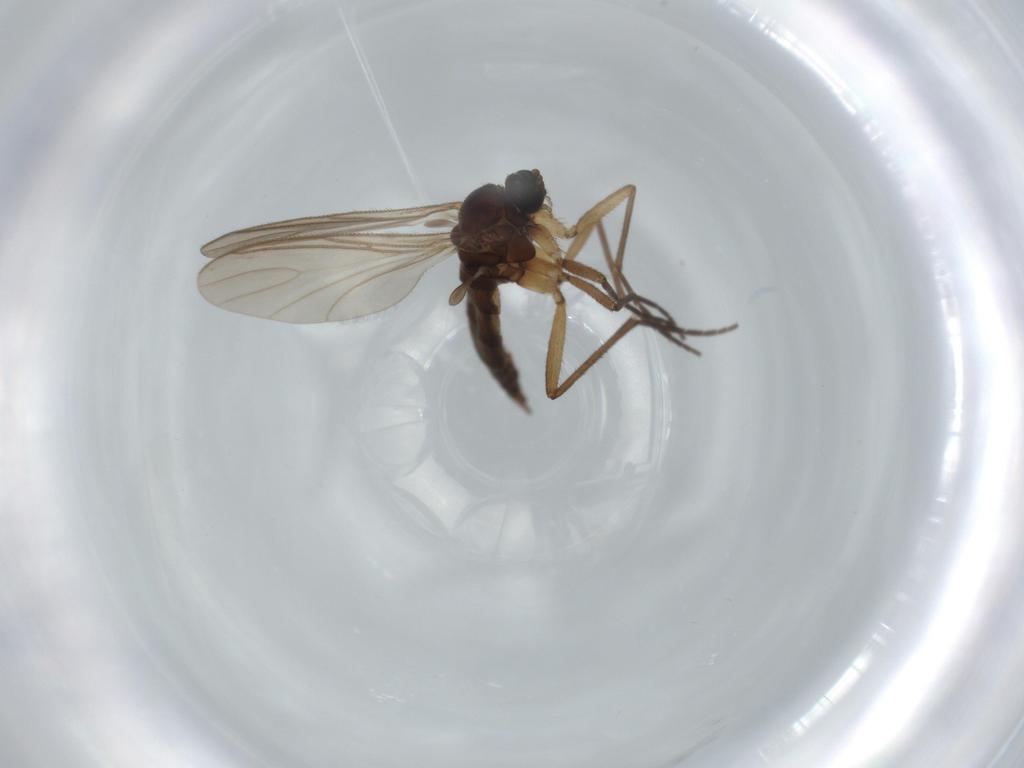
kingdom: Animalia
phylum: Arthropoda
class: Insecta
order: Diptera
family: Sciaridae
